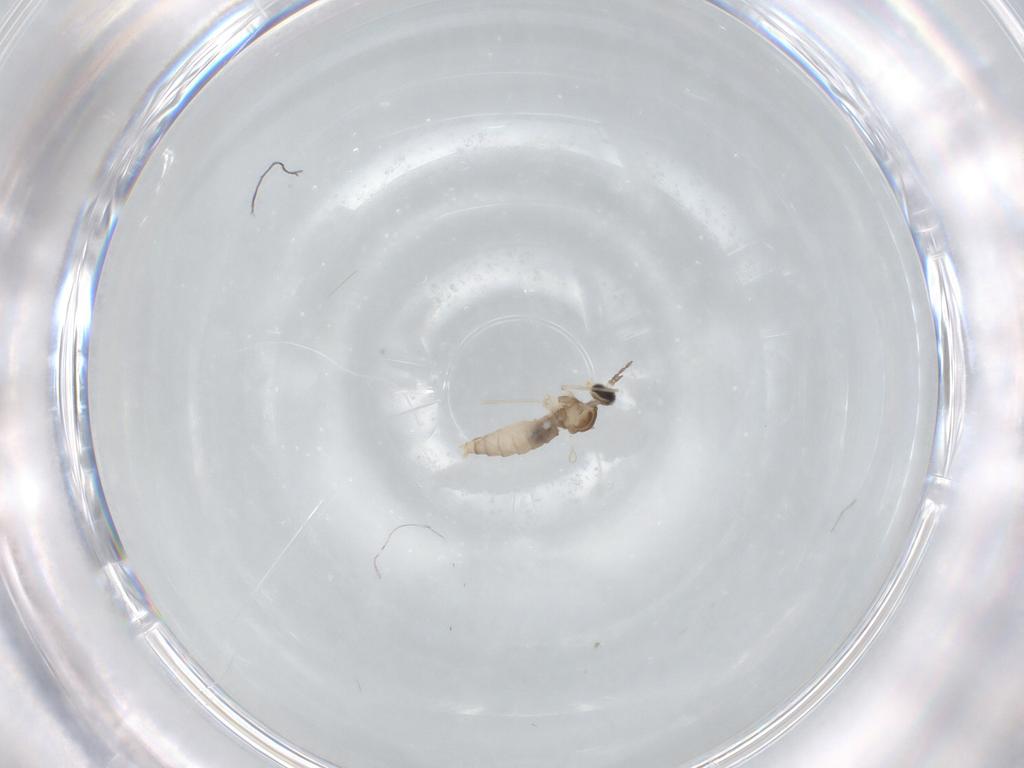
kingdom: Animalia
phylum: Arthropoda
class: Insecta
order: Diptera
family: Cecidomyiidae
